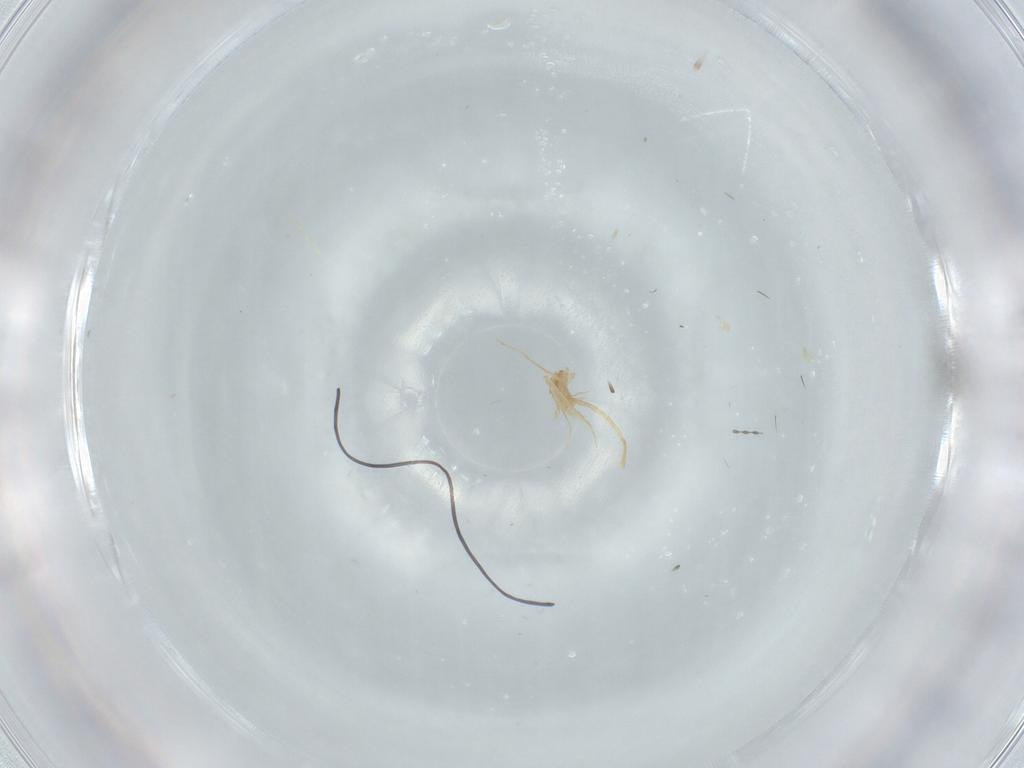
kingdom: Animalia
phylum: Arthropoda
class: Insecta
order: Diptera
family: Cecidomyiidae
